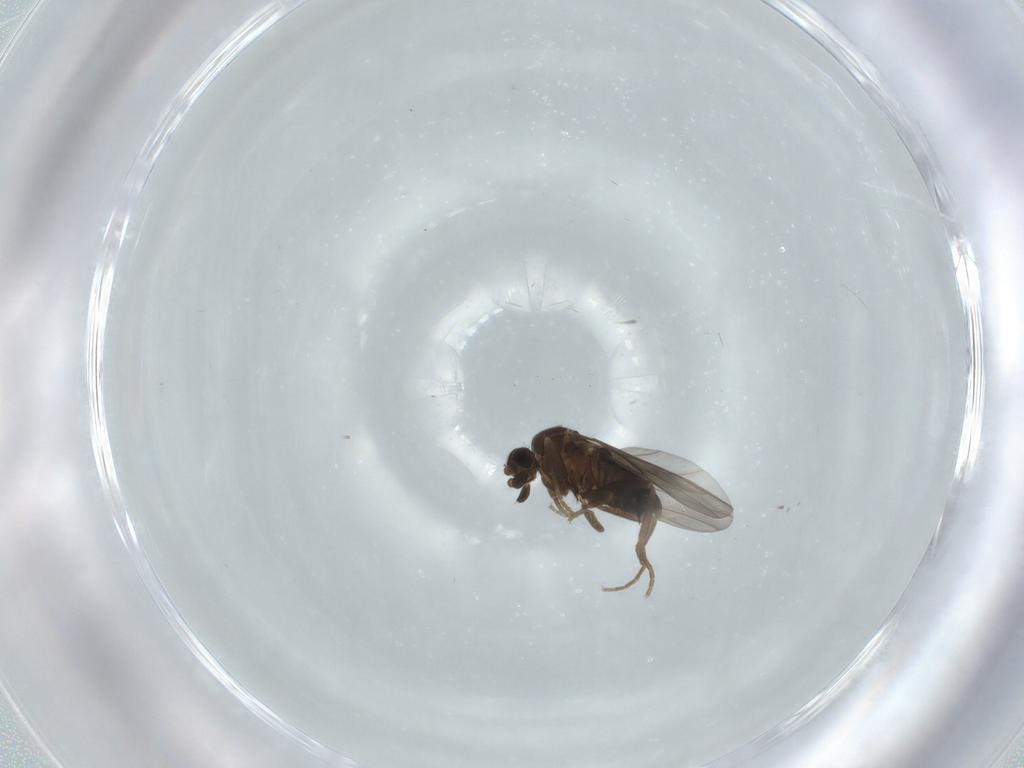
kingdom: Animalia
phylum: Arthropoda
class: Insecta
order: Diptera
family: Phoridae
